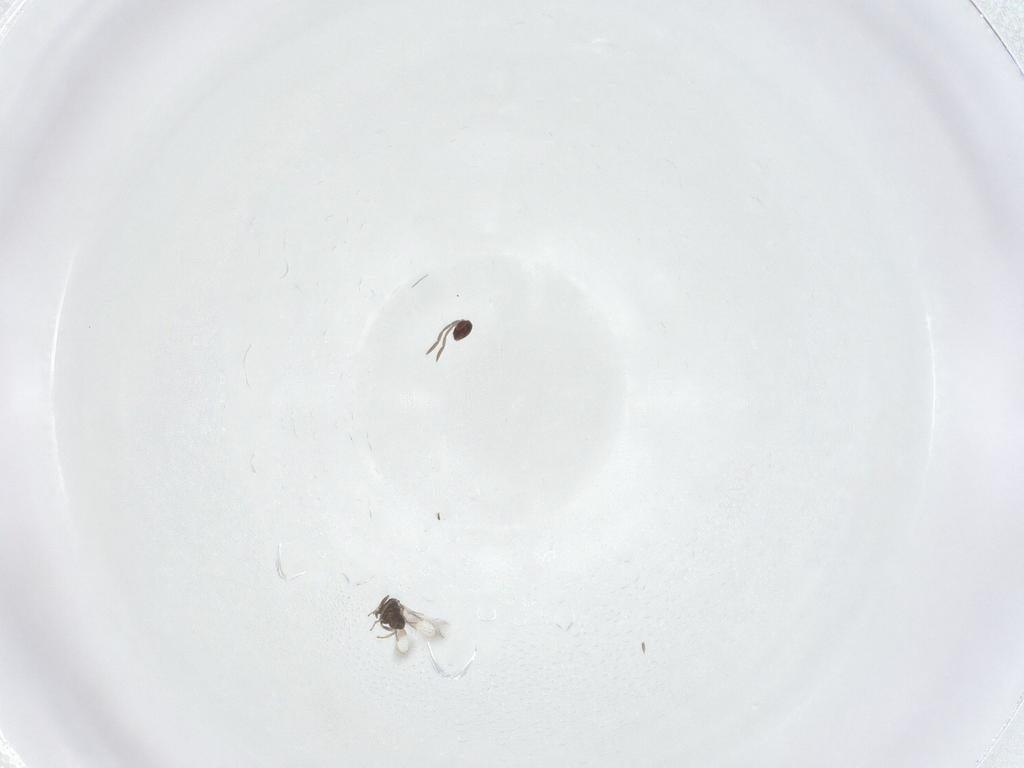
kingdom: Animalia
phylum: Arthropoda
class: Insecta
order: Hymenoptera
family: Azotidae
